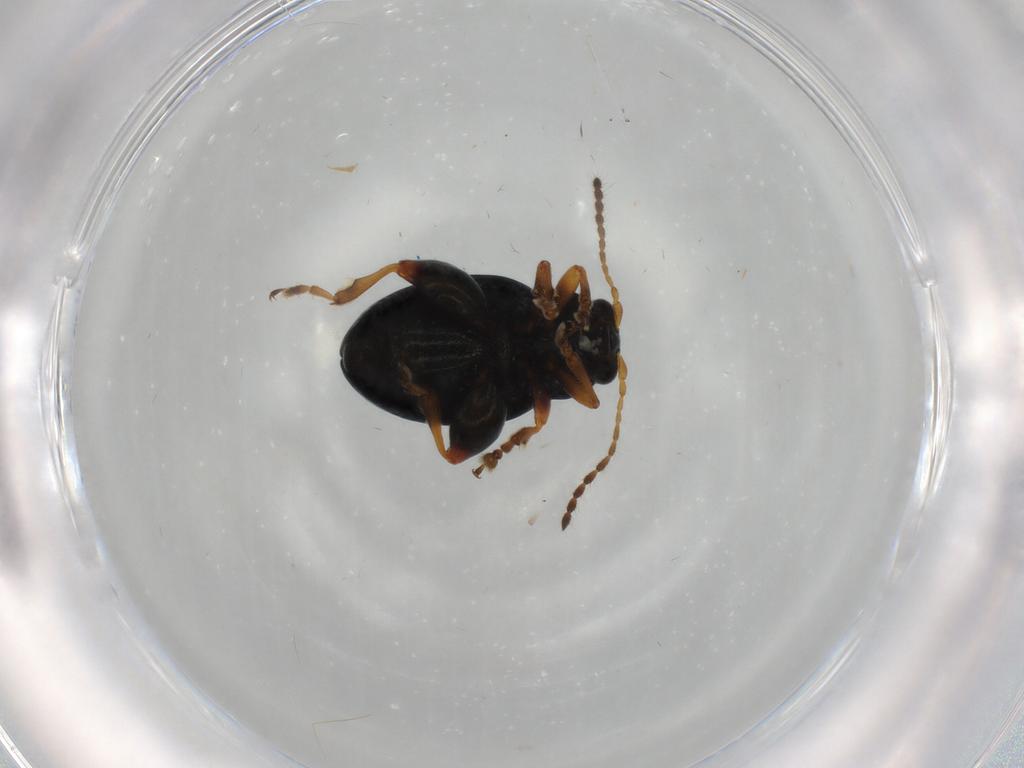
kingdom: Animalia
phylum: Arthropoda
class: Insecta
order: Coleoptera
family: Chrysomelidae
